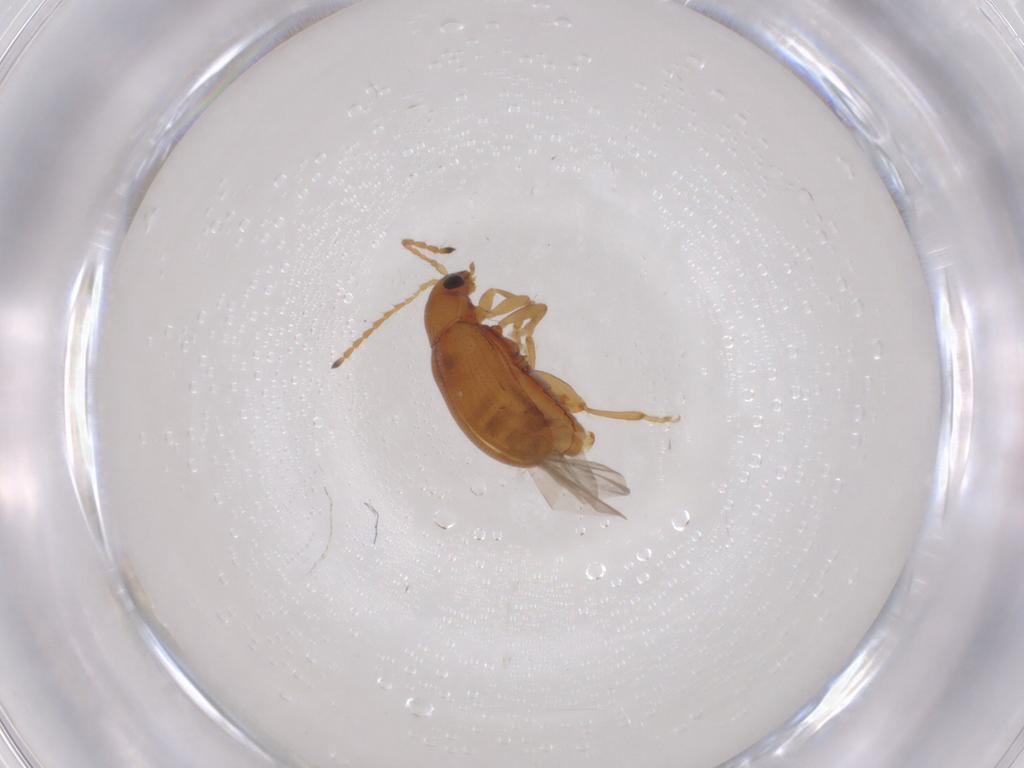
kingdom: Animalia
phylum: Arthropoda
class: Insecta
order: Coleoptera
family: Chrysomelidae
